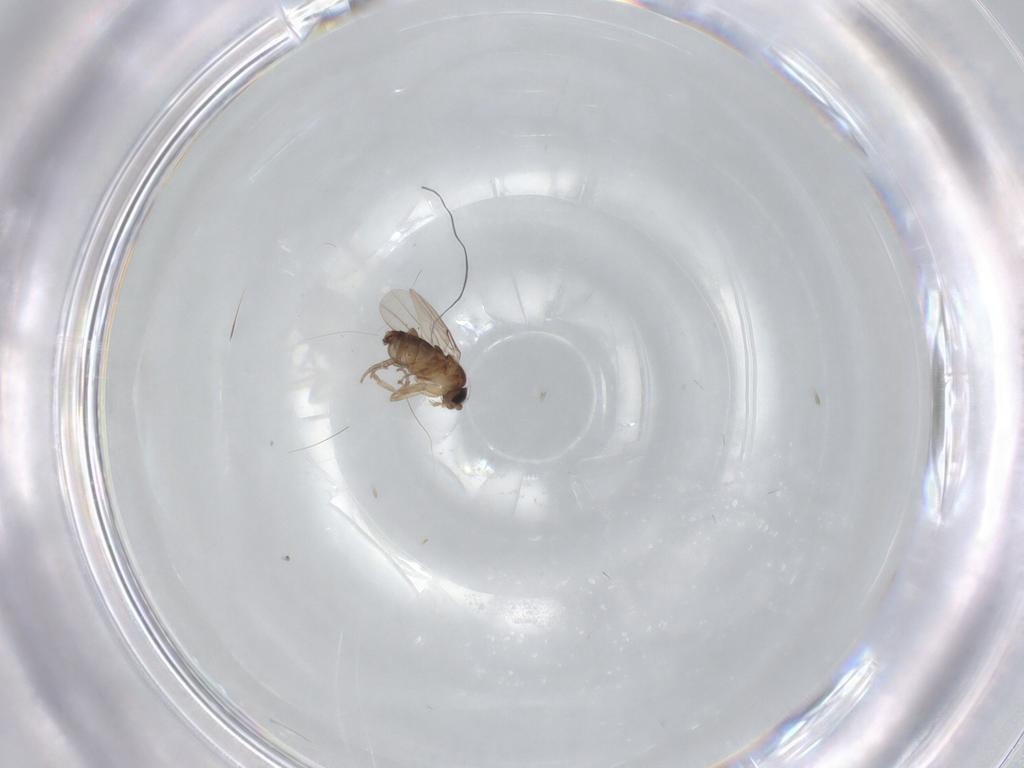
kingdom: Animalia
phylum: Arthropoda
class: Insecta
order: Diptera
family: Phoridae
